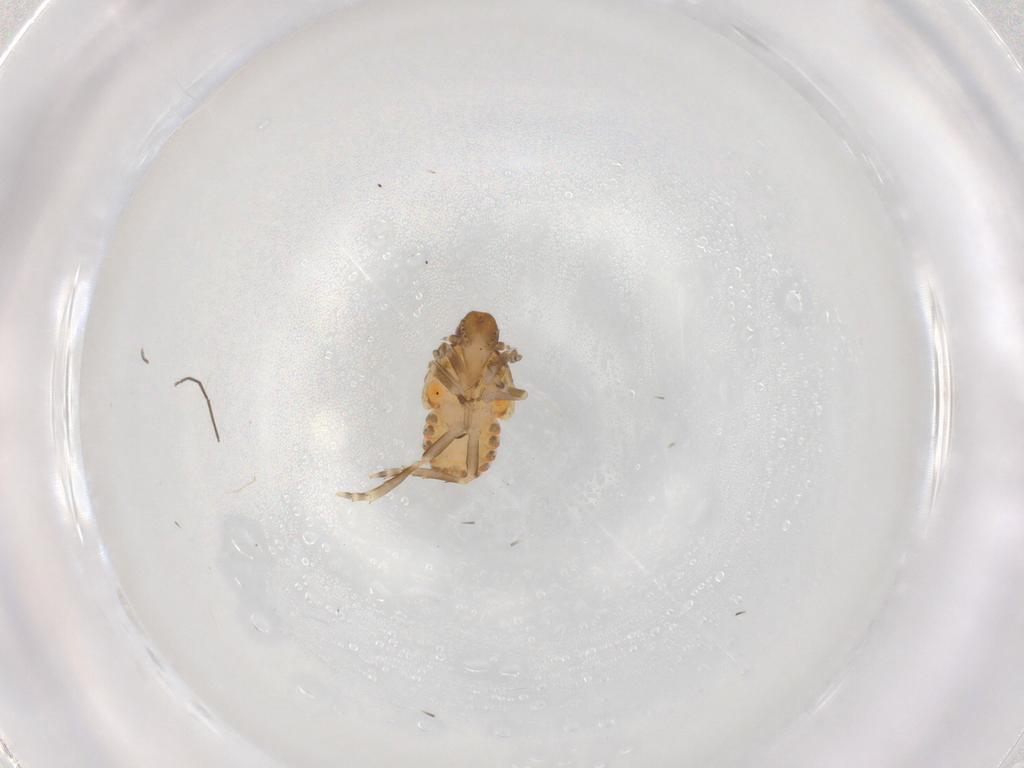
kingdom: Animalia
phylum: Arthropoda
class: Insecta
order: Hemiptera
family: Flatidae
